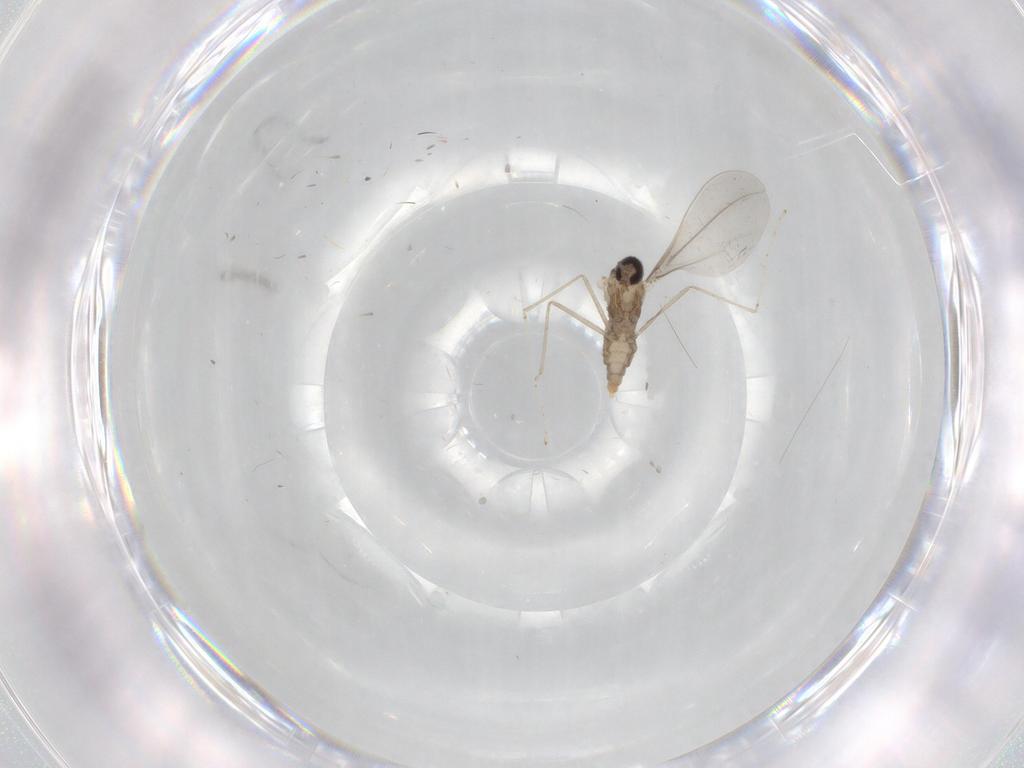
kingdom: Animalia
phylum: Arthropoda
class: Insecta
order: Diptera
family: Cecidomyiidae
